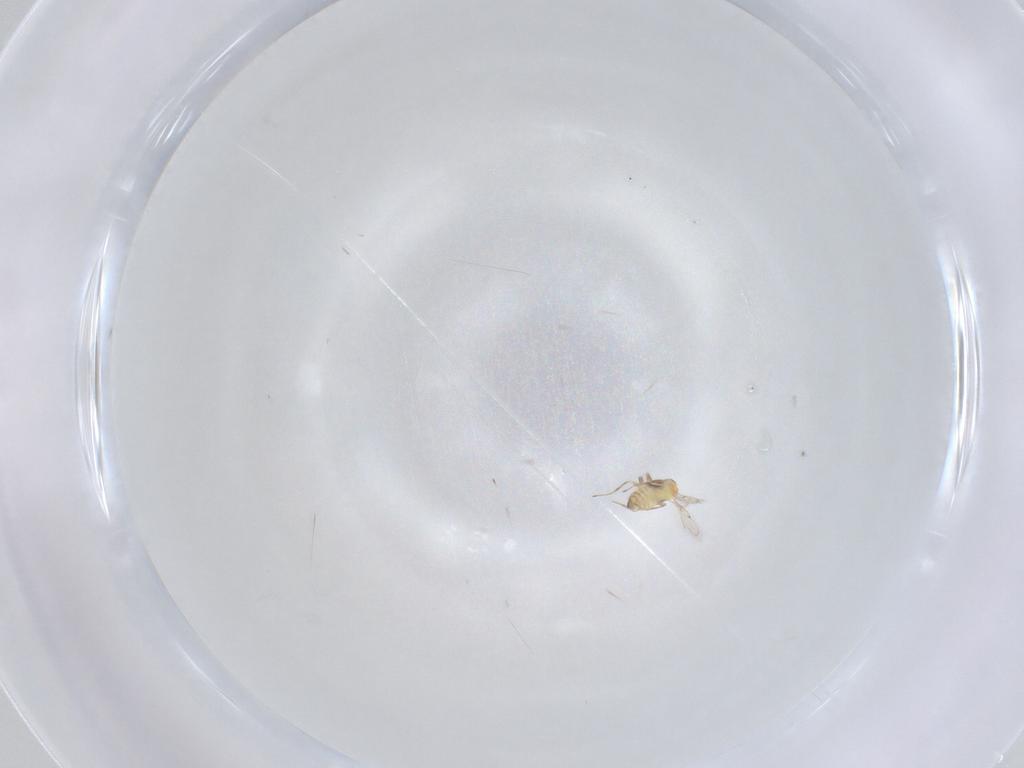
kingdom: Animalia
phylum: Arthropoda
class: Insecta
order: Hymenoptera
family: Trichogrammatidae
